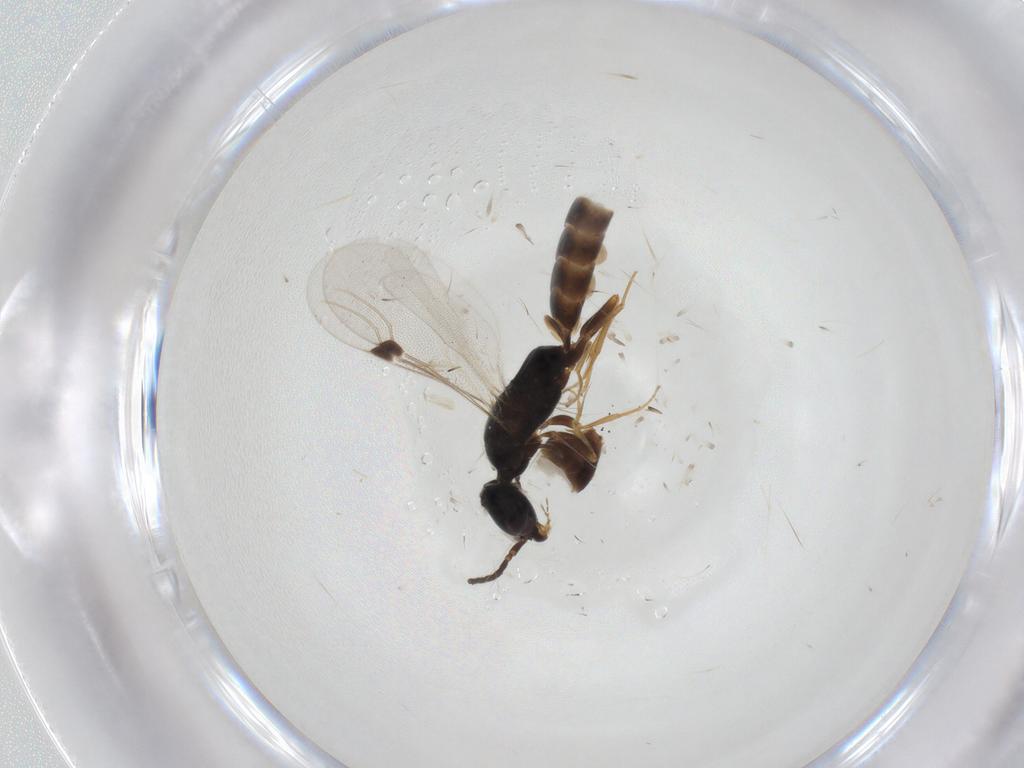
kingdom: Animalia
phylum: Arthropoda
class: Insecta
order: Hymenoptera
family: Bethylidae
